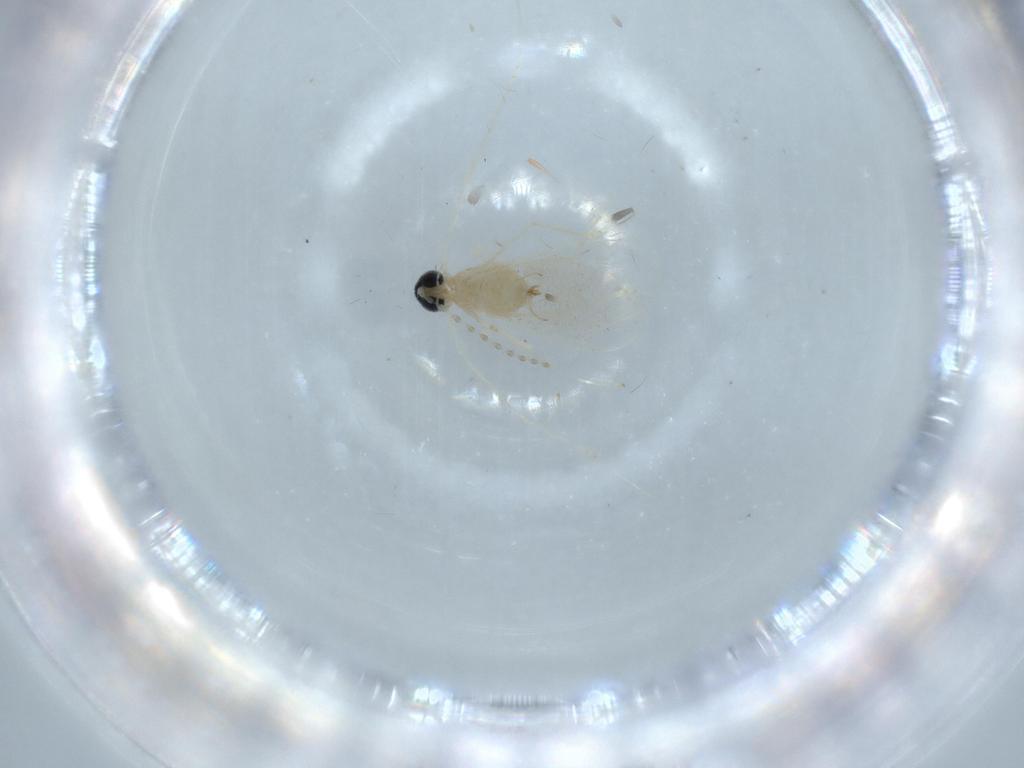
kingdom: Animalia
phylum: Arthropoda
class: Insecta
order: Diptera
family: Cecidomyiidae
